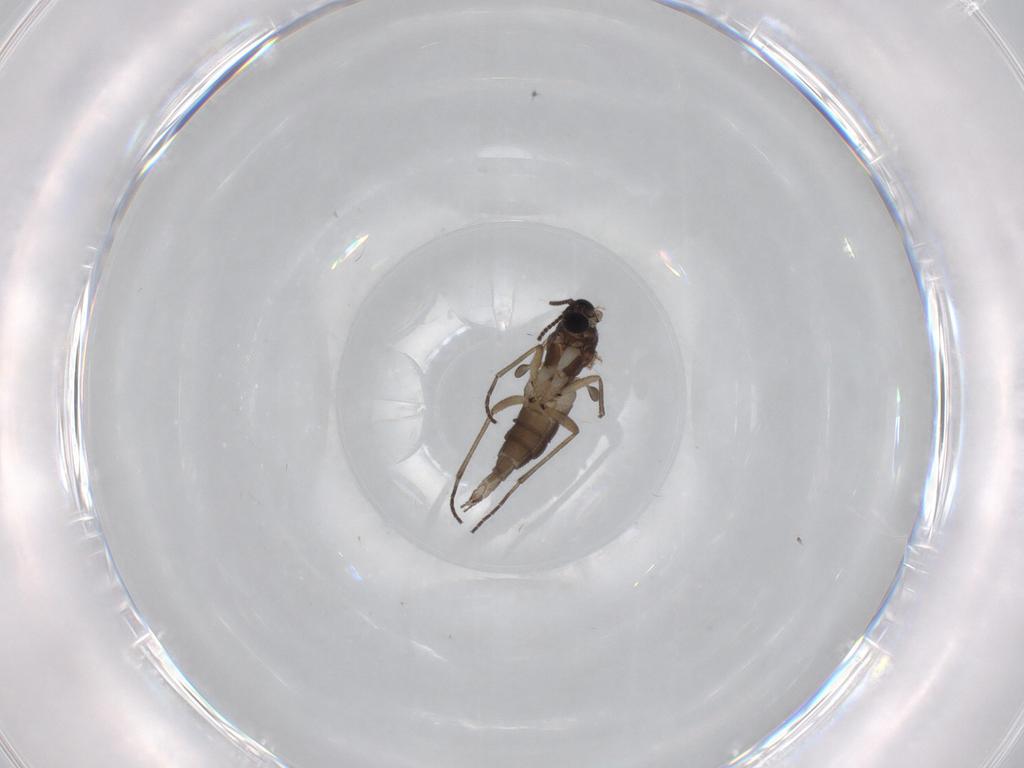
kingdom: Animalia
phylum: Arthropoda
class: Insecta
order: Diptera
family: Sciaridae
